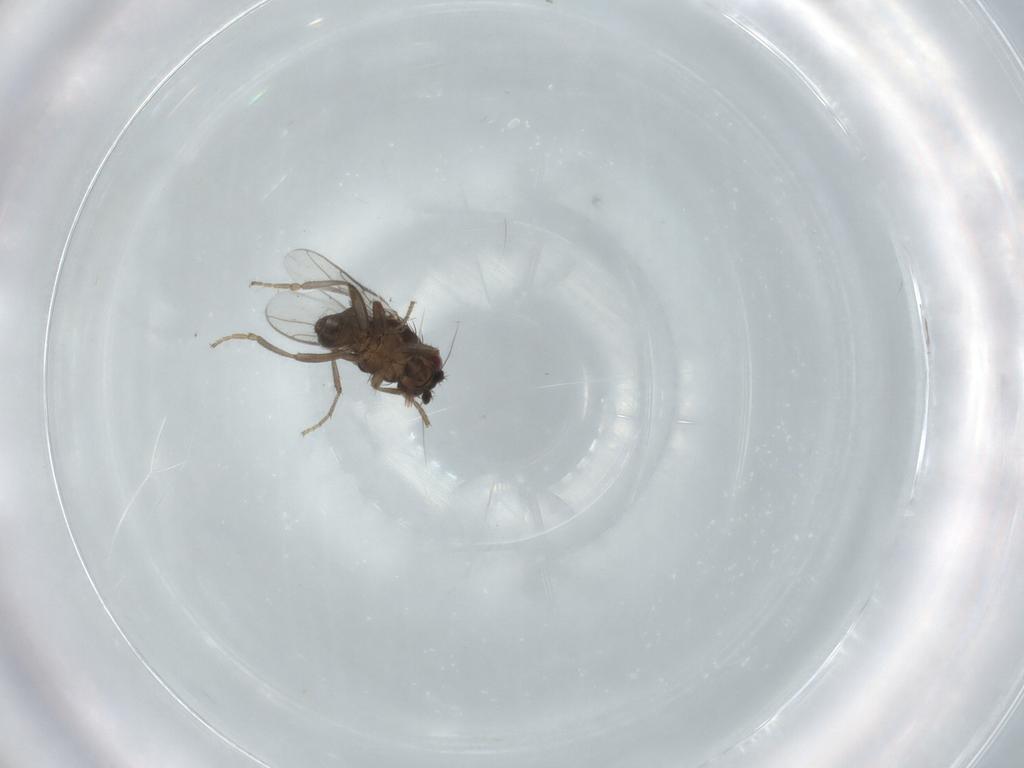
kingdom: Animalia
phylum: Arthropoda
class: Insecta
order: Diptera
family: Sphaeroceridae
